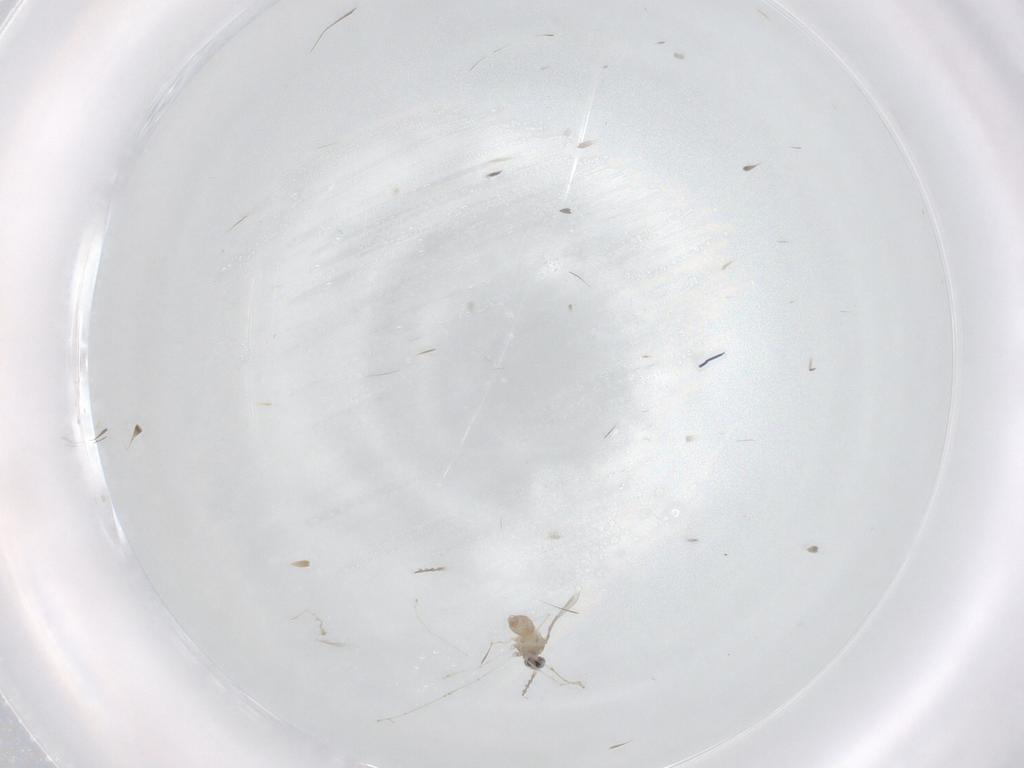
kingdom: Animalia
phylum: Arthropoda
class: Insecta
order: Diptera
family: Cecidomyiidae
